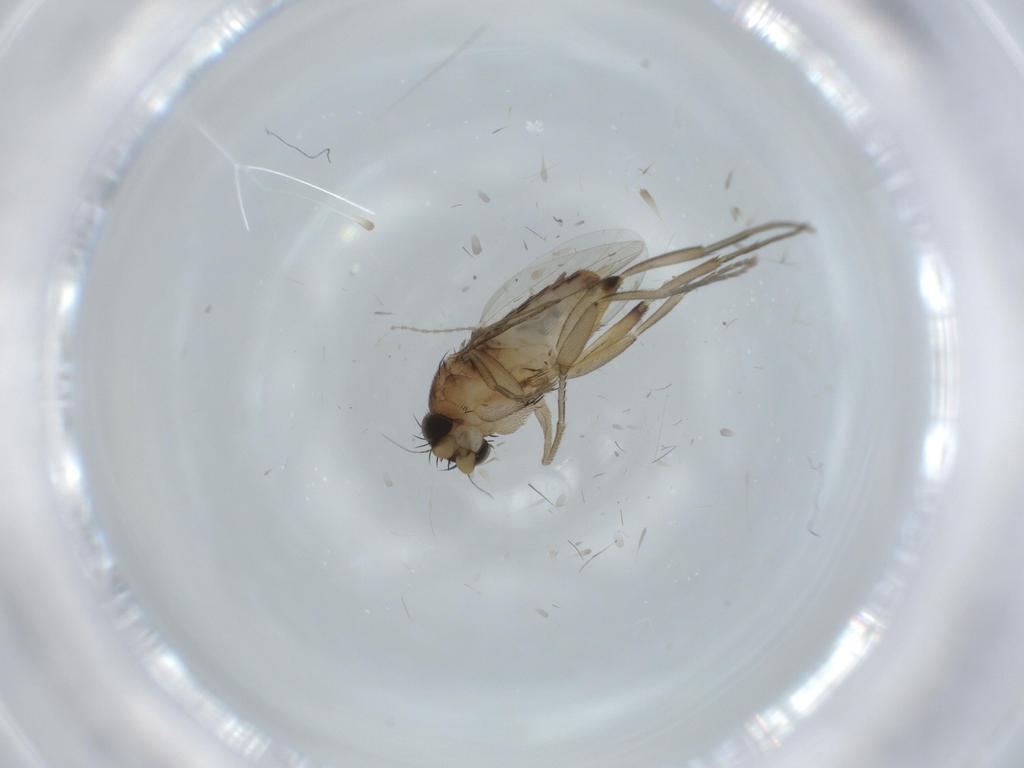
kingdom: Animalia
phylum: Arthropoda
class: Insecta
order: Diptera
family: Phoridae
